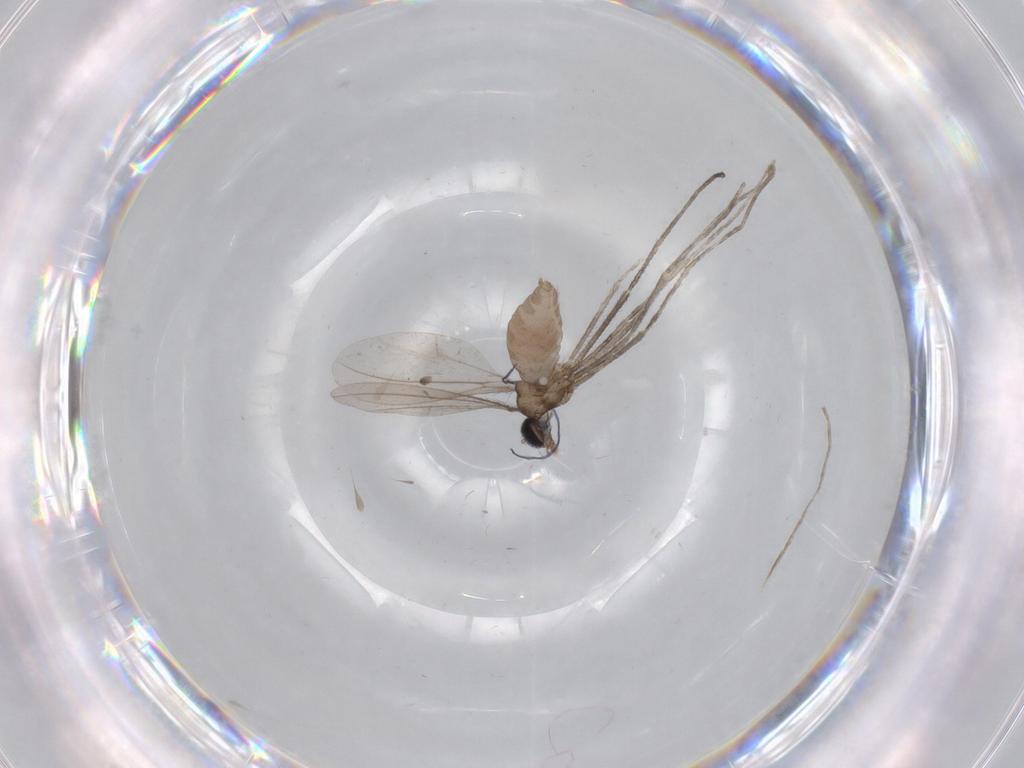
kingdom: Animalia
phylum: Arthropoda
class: Insecta
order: Diptera
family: Cecidomyiidae
